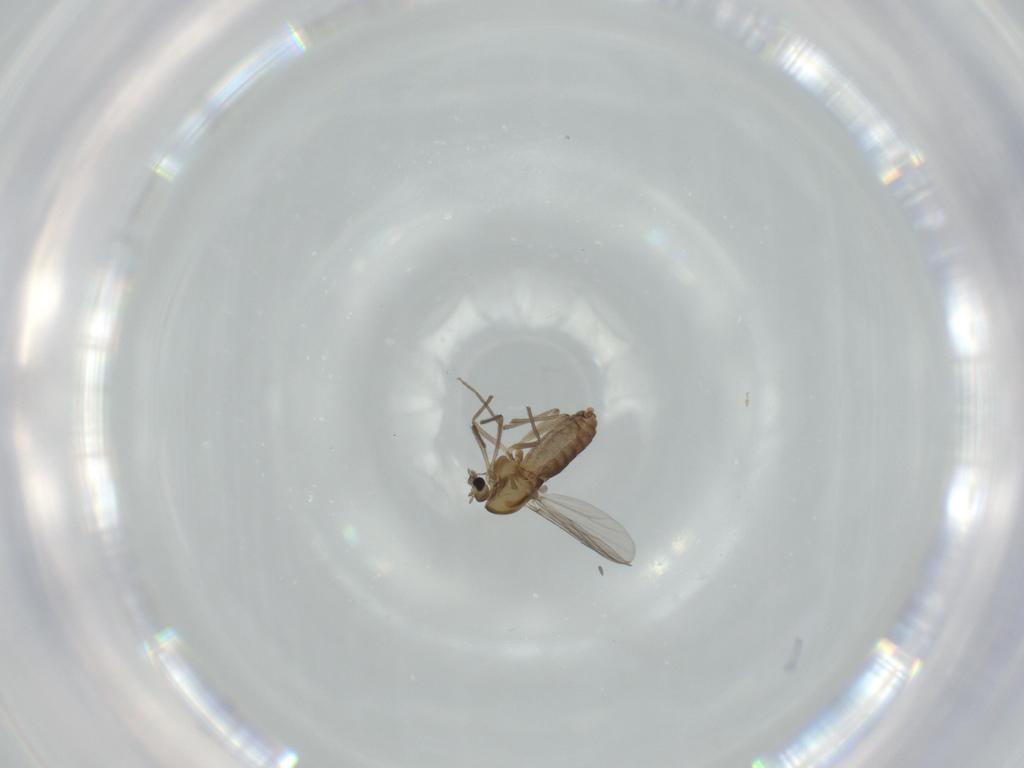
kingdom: Animalia
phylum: Arthropoda
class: Insecta
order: Diptera
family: Chironomidae
